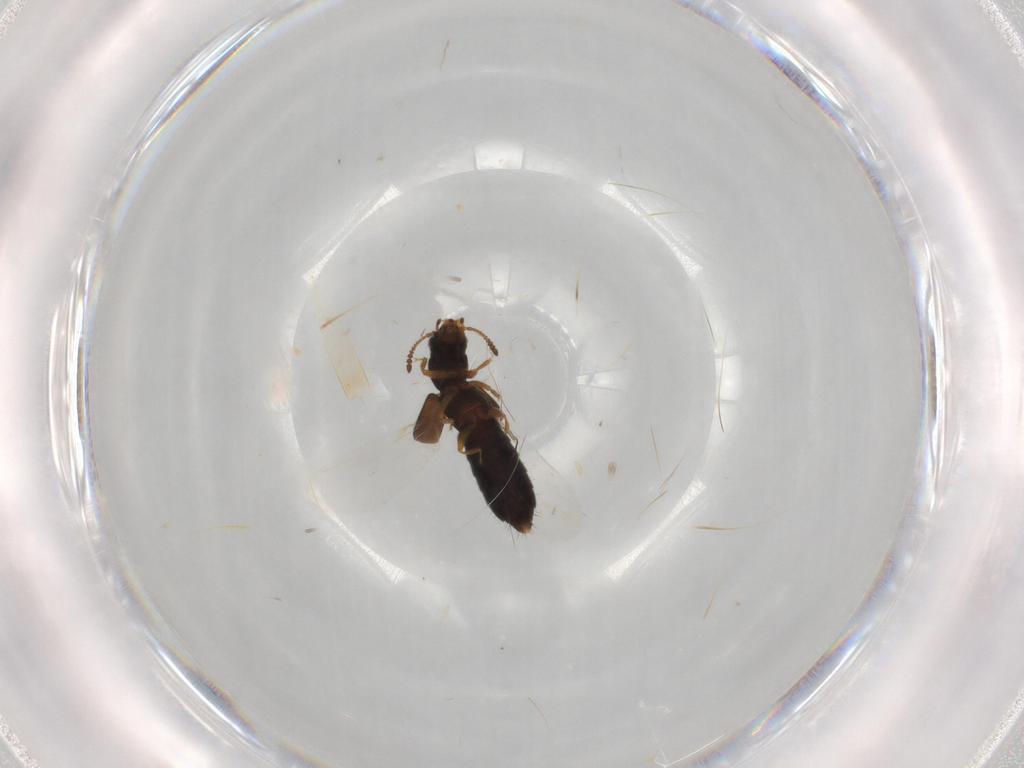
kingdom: Animalia
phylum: Arthropoda
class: Insecta
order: Coleoptera
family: Staphylinidae
